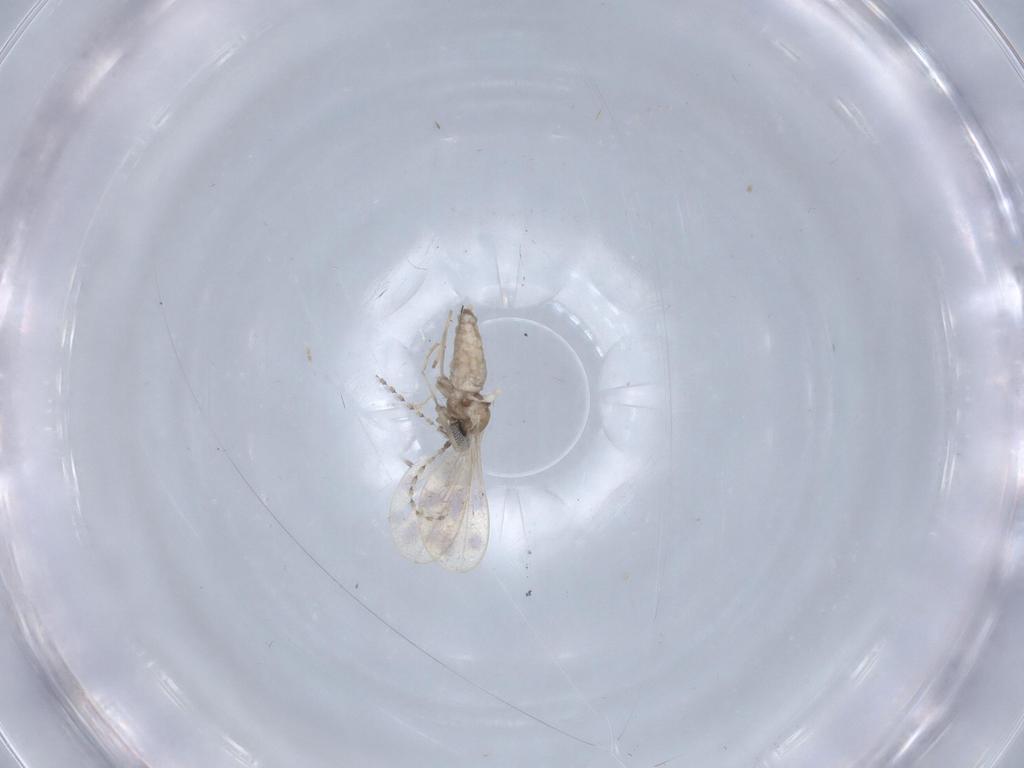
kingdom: Animalia
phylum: Arthropoda
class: Insecta
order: Diptera
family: Cecidomyiidae
